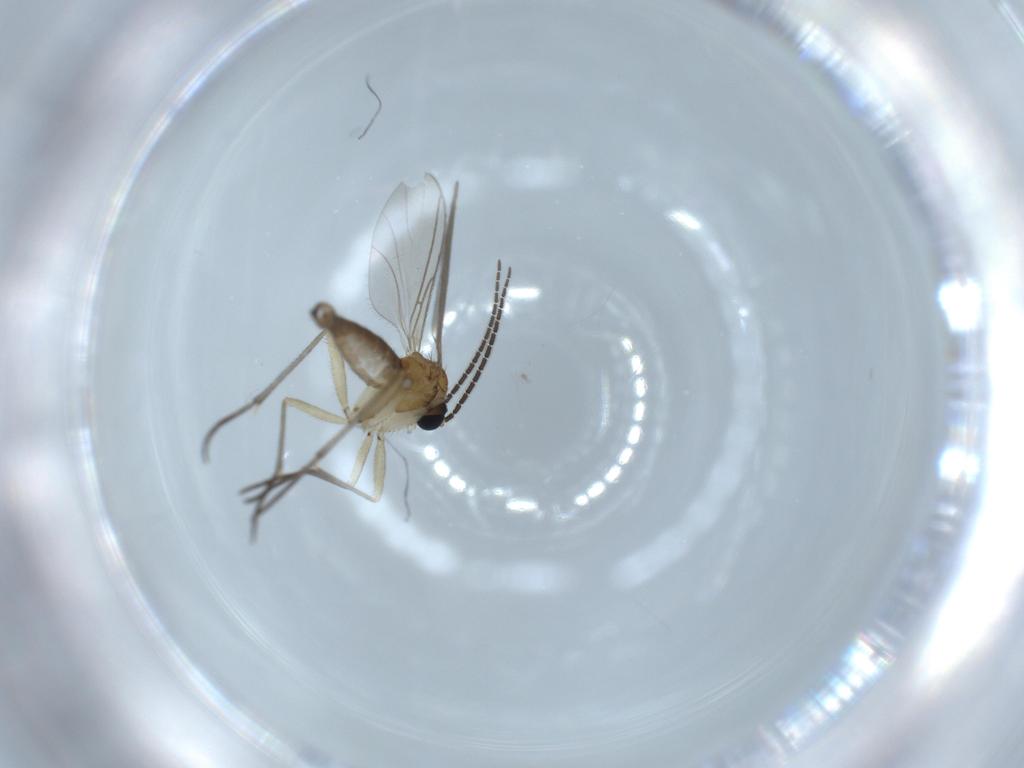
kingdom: Animalia
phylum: Arthropoda
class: Insecta
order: Diptera
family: Sciaridae
